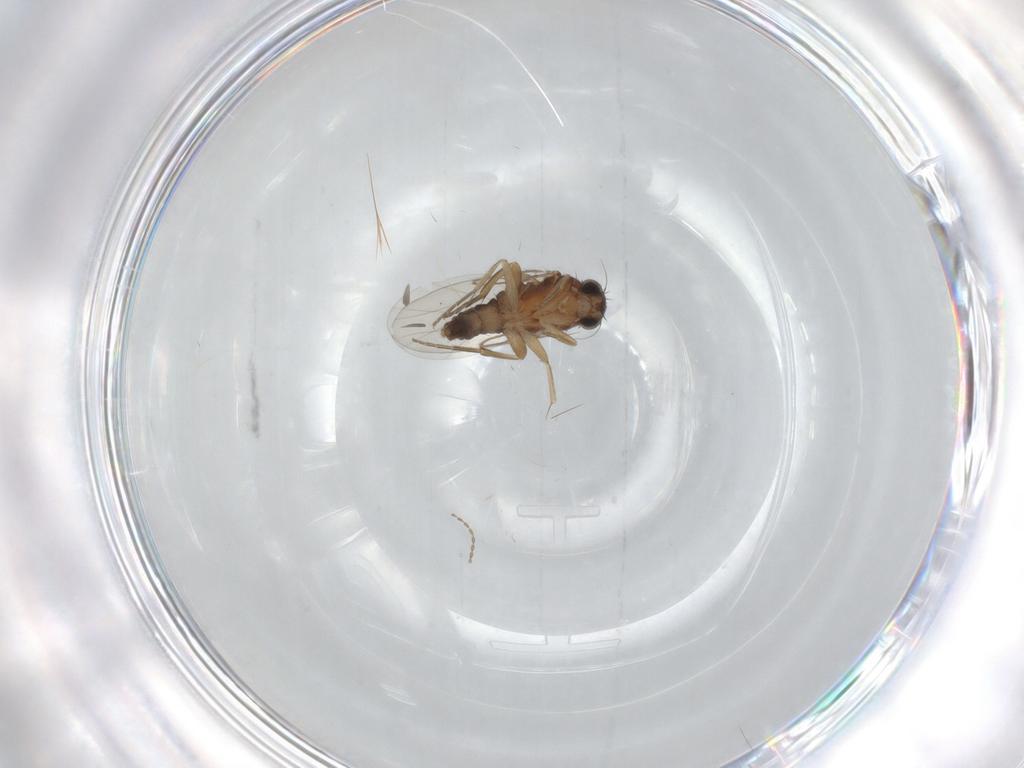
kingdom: Animalia
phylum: Arthropoda
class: Insecta
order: Diptera
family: Phoridae
